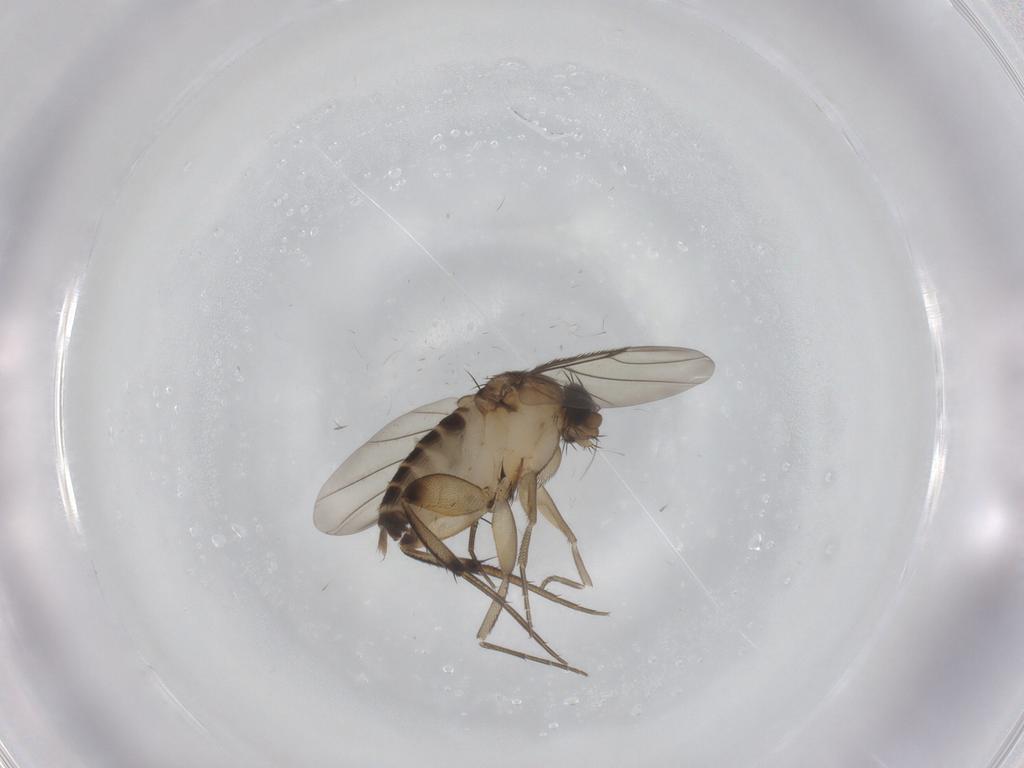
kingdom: Animalia
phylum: Arthropoda
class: Insecta
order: Diptera
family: Phoridae
